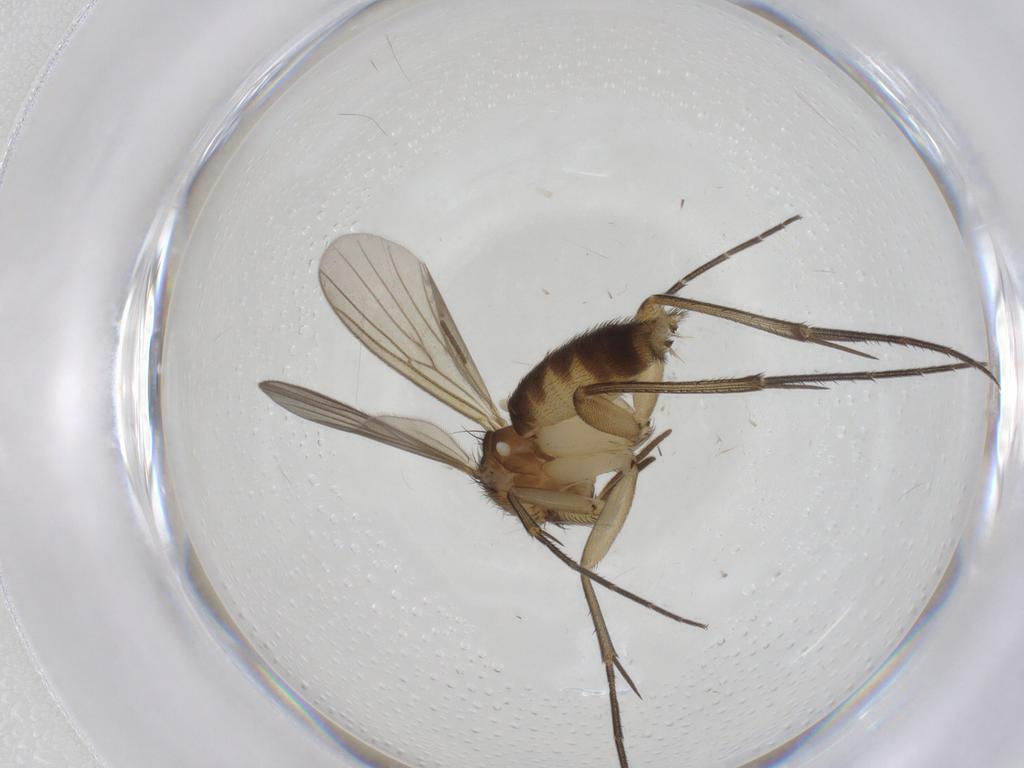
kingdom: Animalia
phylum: Arthropoda
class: Insecta
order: Diptera
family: Mycetophilidae
